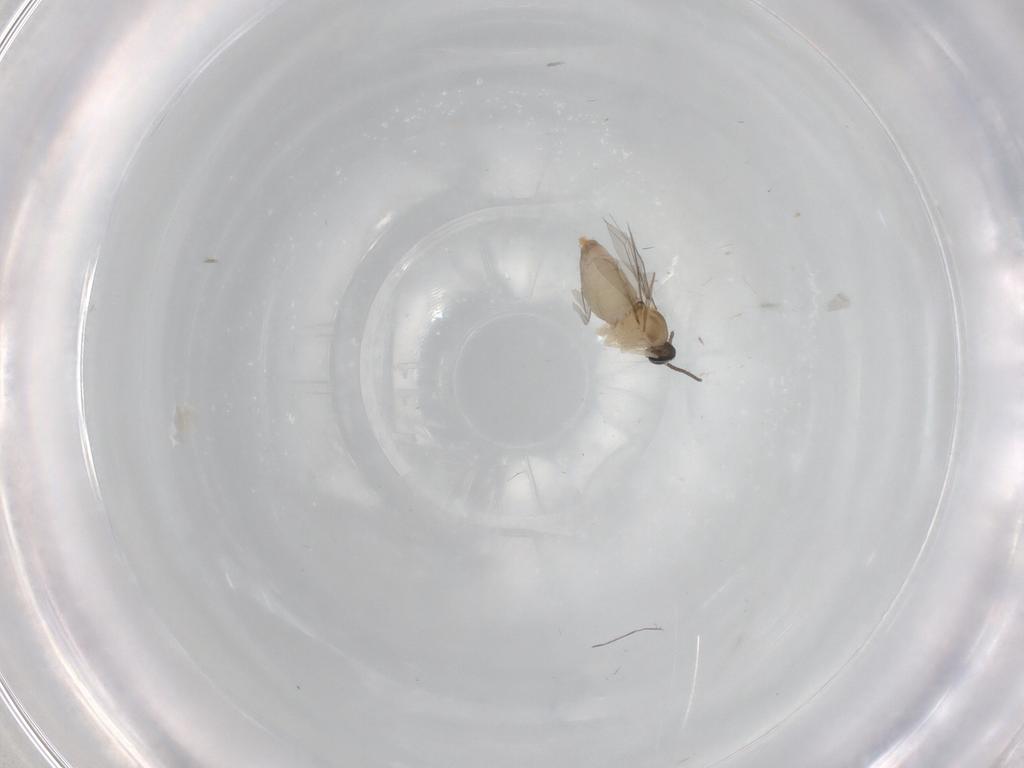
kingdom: Animalia
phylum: Arthropoda
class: Insecta
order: Diptera
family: Cecidomyiidae
